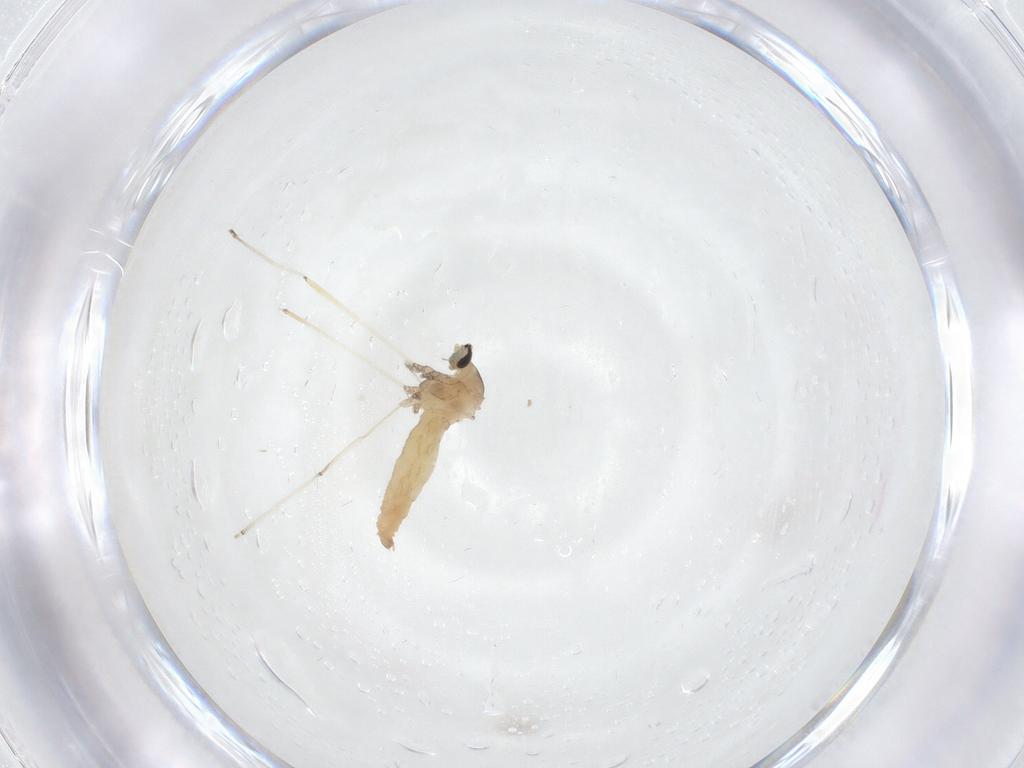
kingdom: Animalia
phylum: Arthropoda
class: Insecta
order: Diptera
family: Cecidomyiidae
